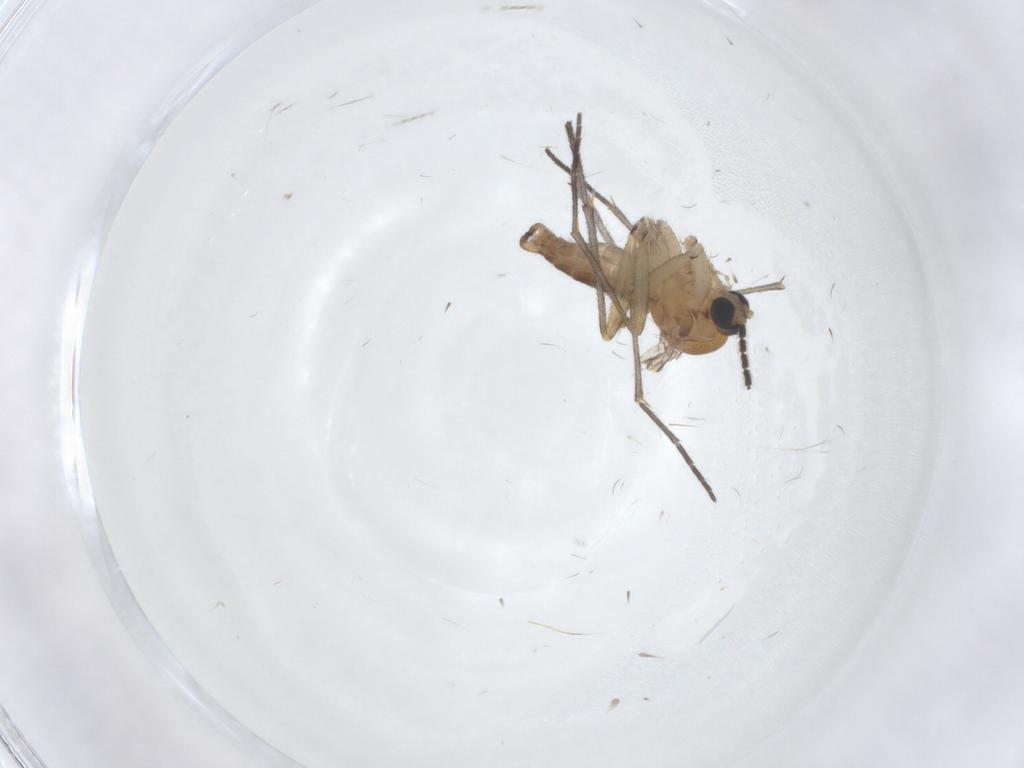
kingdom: Animalia
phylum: Arthropoda
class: Insecta
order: Diptera
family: Sciaridae
